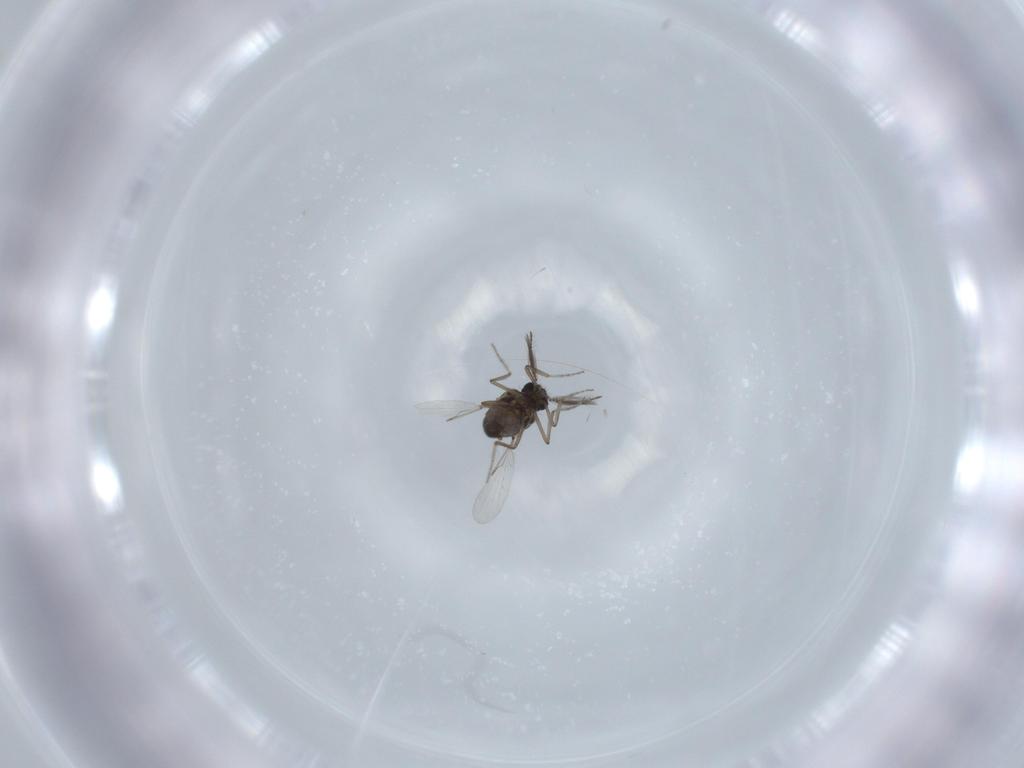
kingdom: Animalia
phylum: Arthropoda
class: Insecta
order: Diptera
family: Ceratopogonidae
